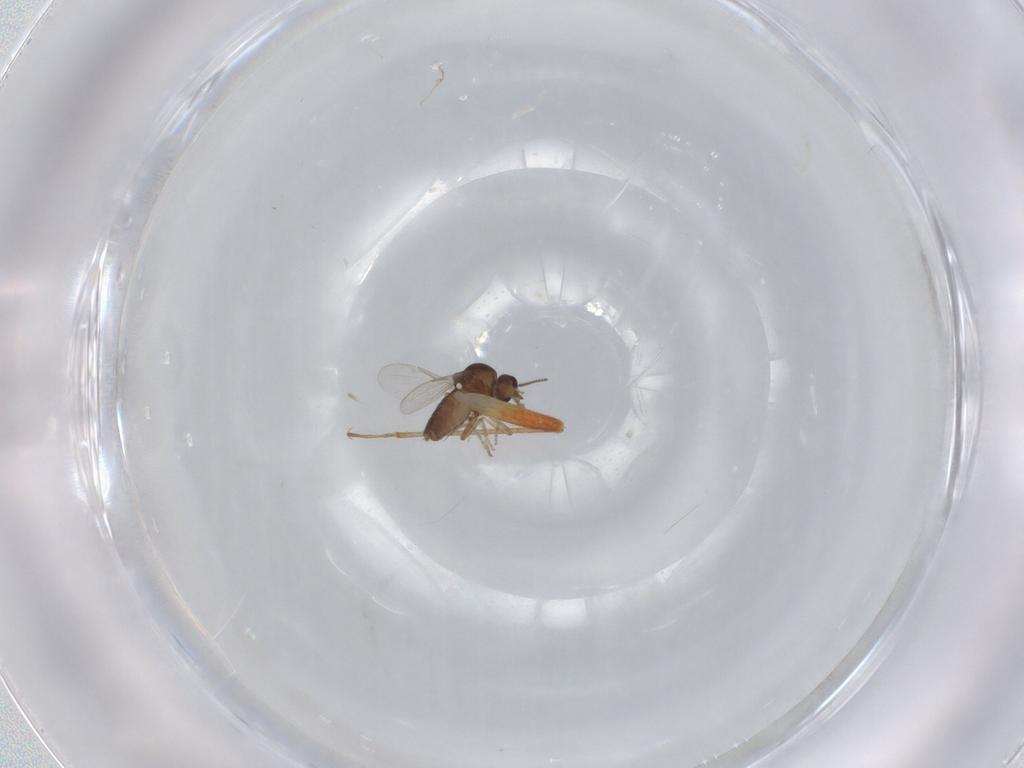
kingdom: Animalia
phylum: Arthropoda
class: Insecta
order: Diptera
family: Ceratopogonidae
